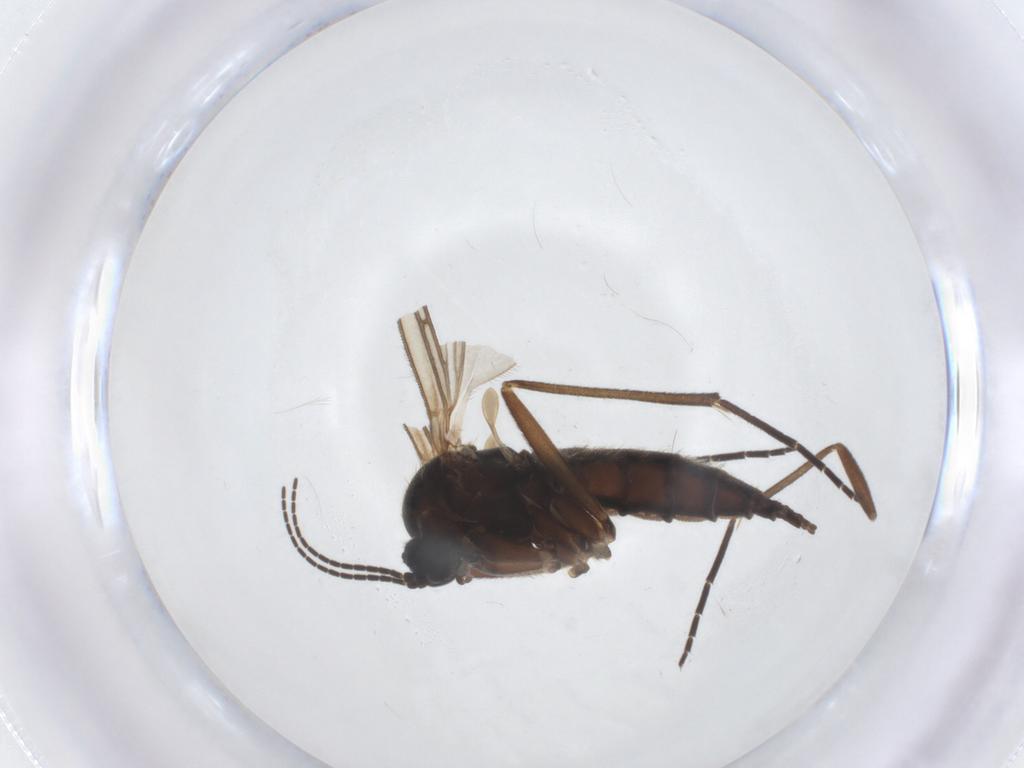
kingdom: Animalia
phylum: Arthropoda
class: Insecta
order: Diptera
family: Sciaridae
